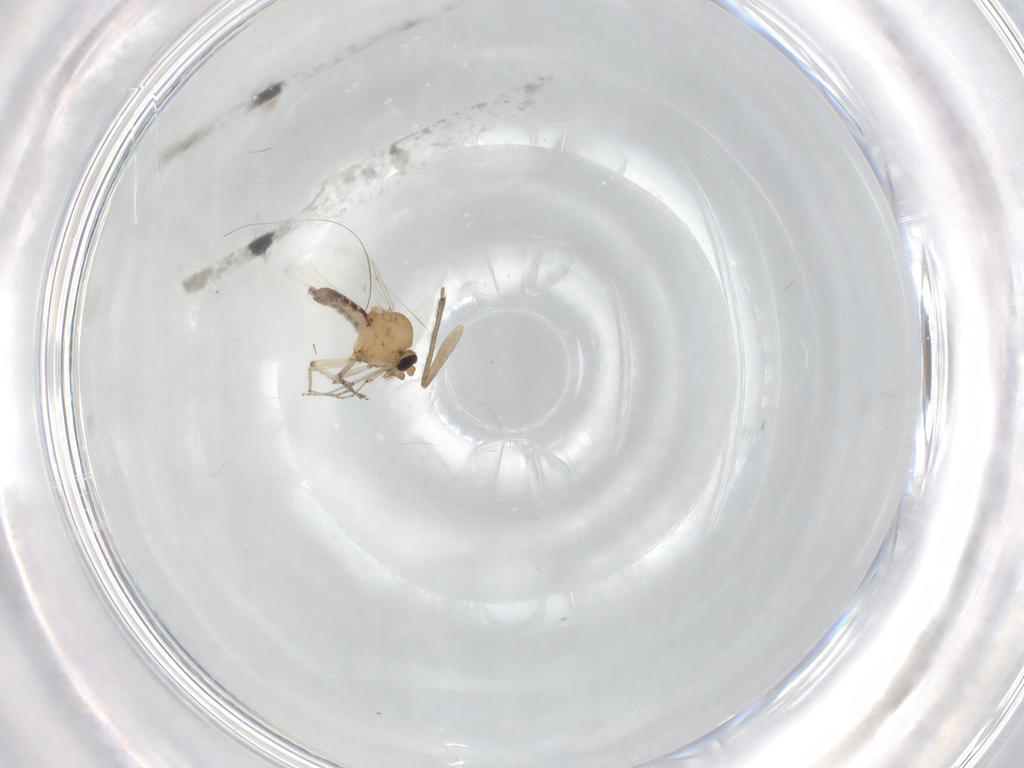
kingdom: Animalia
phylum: Arthropoda
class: Insecta
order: Diptera
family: Ceratopogonidae
